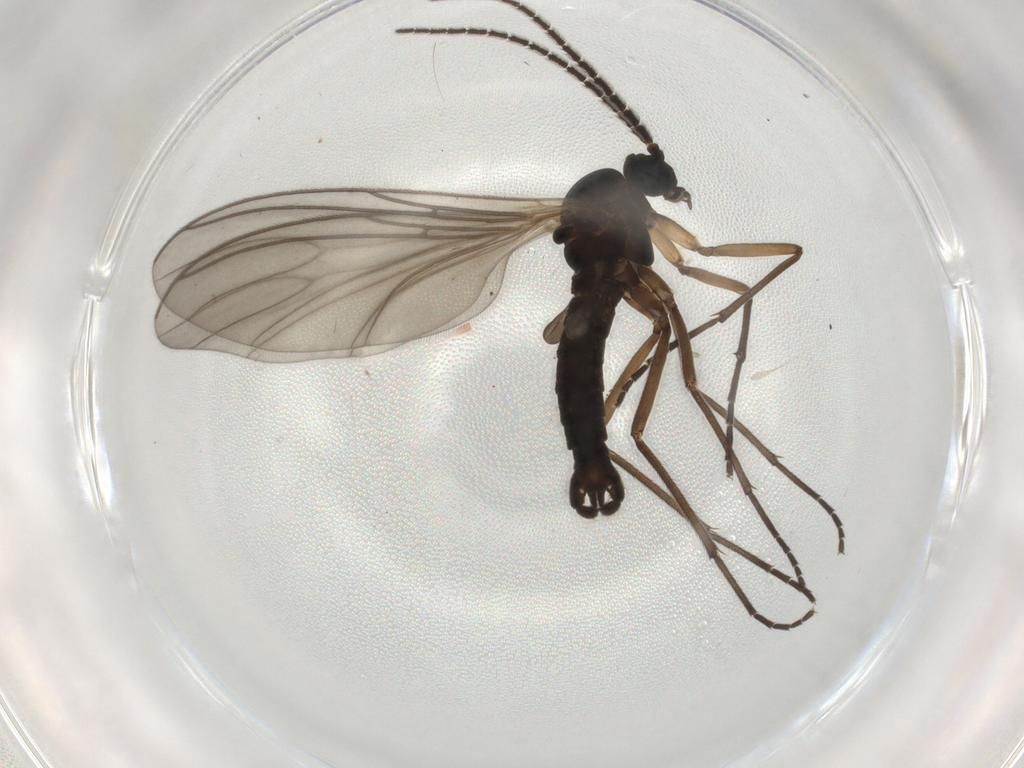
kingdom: Animalia
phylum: Arthropoda
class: Insecta
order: Diptera
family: Sciaridae
